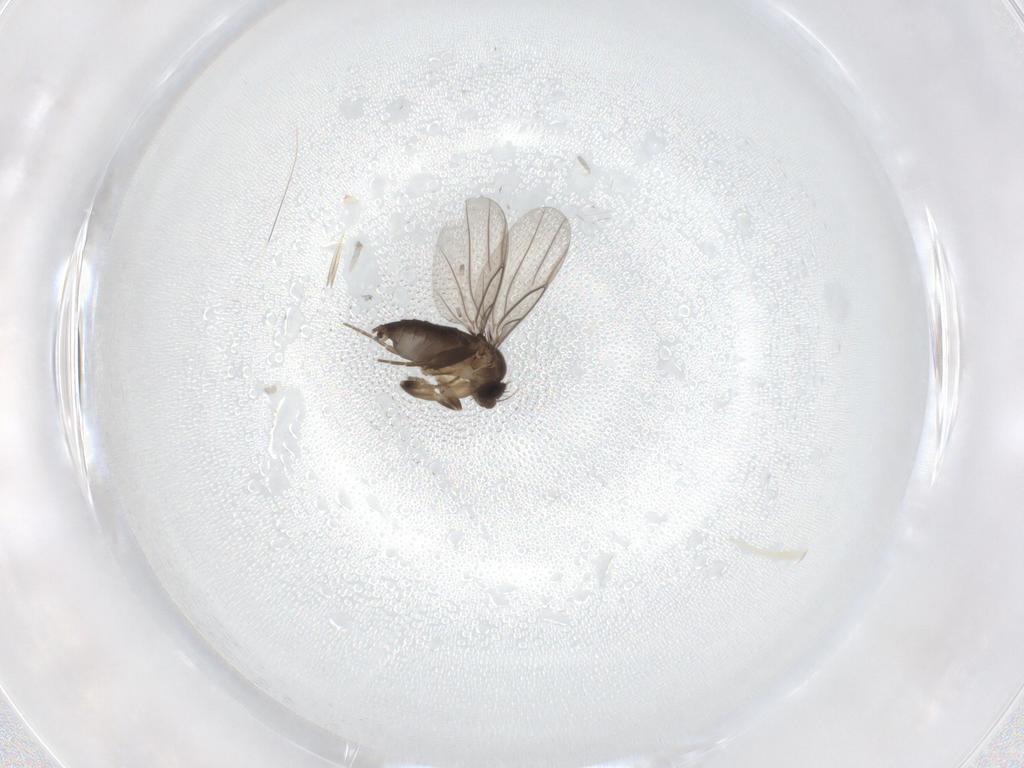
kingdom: Animalia
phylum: Arthropoda
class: Insecta
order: Diptera
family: Phoridae
